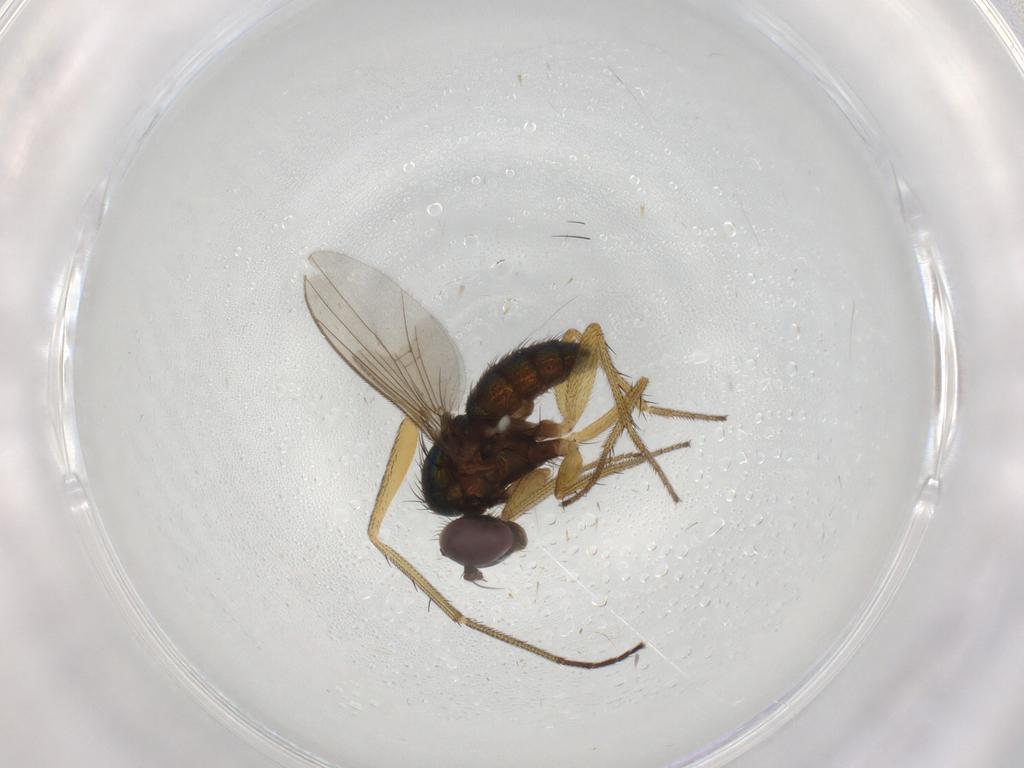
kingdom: Animalia
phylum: Arthropoda
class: Insecta
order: Diptera
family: Dolichopodidae
